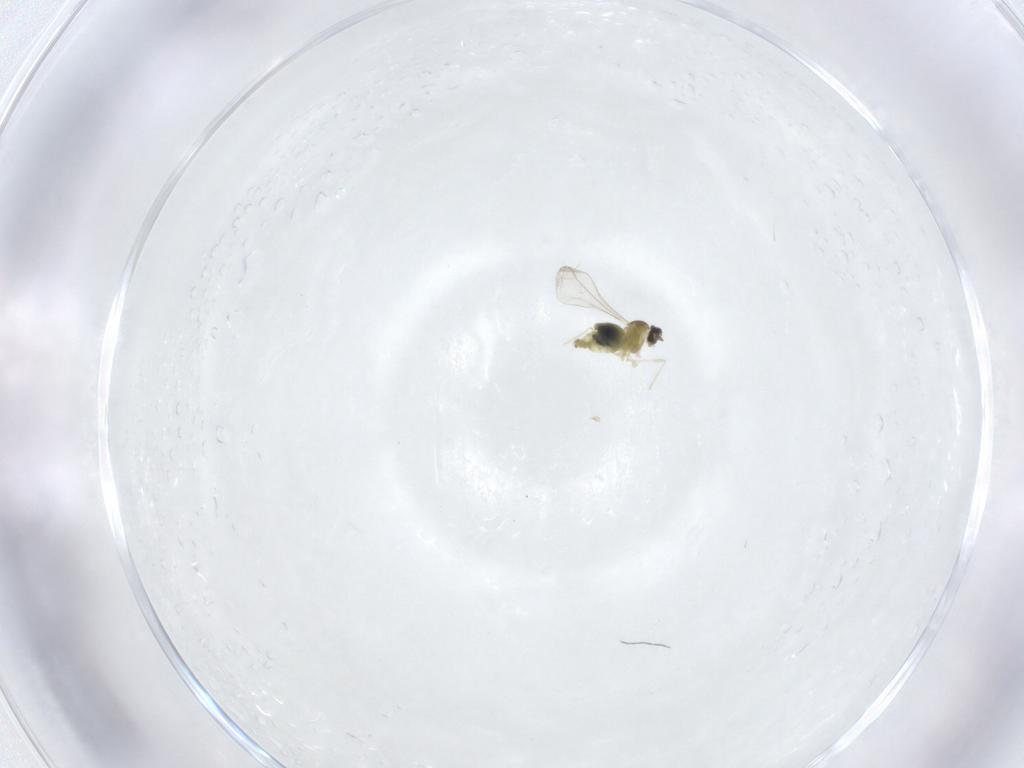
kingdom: Animalia
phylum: Arthropoda
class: Insecta
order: Diptera
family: Cecidomyiidae
